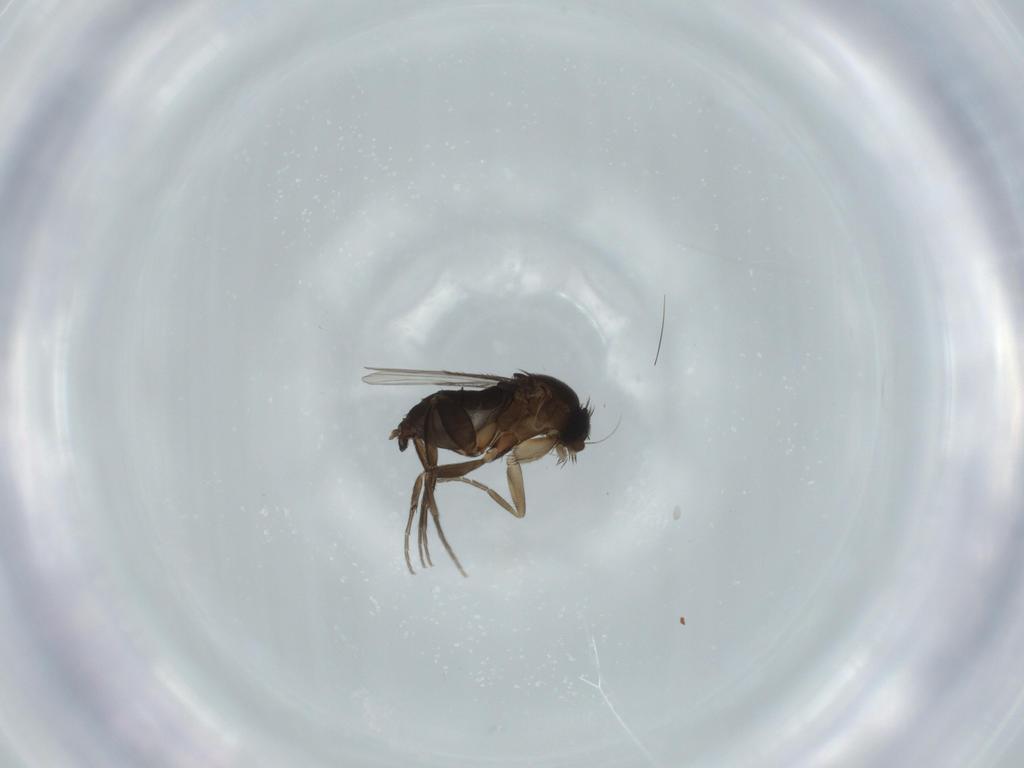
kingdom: Animalia
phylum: Arthropoda
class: Insecta
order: Diptera
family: Phoridae
